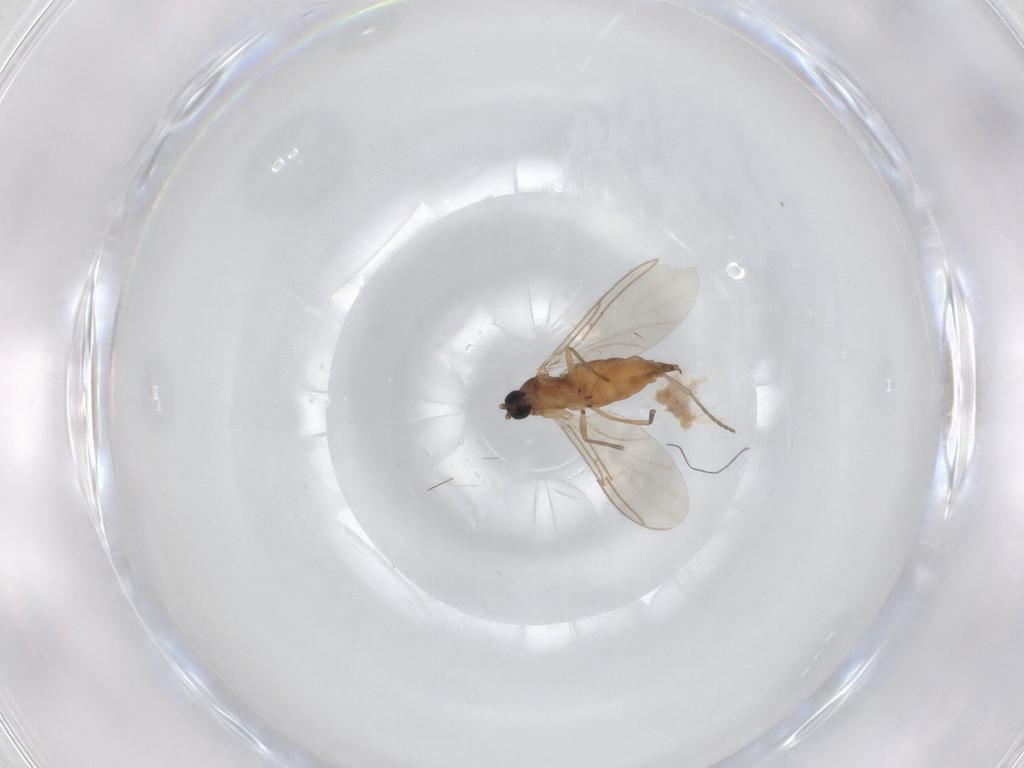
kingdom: Animalia
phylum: Arthropoda
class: Insecta
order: Diptera
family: Sciaridae
